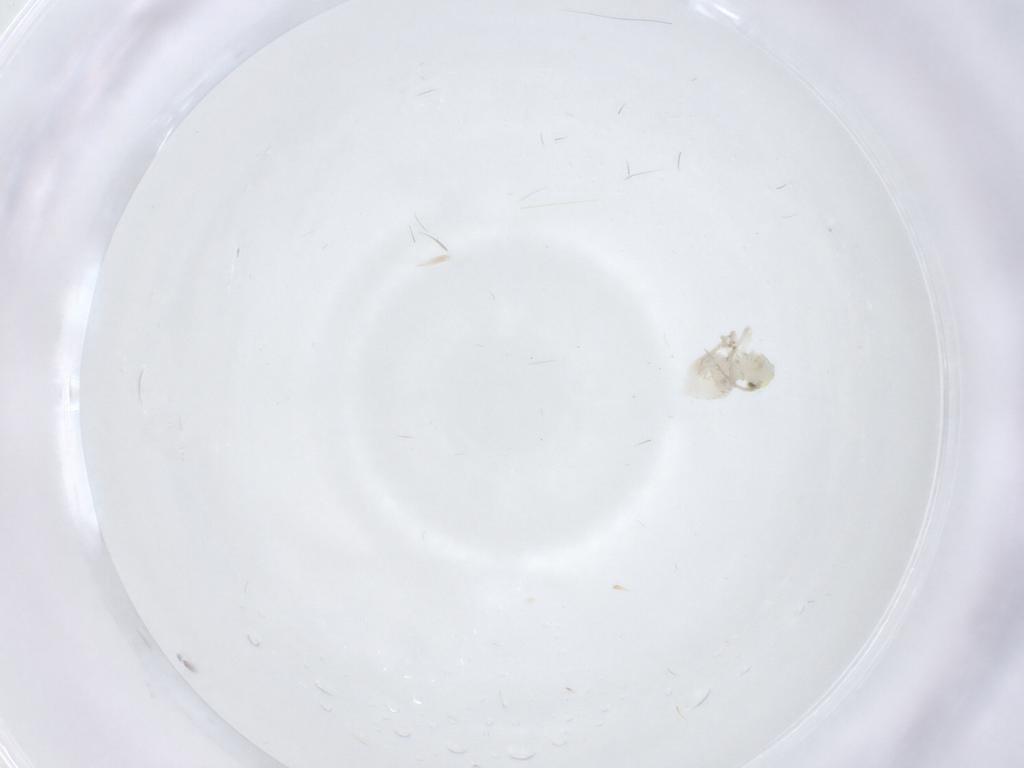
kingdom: Animalia
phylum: Arthropoda
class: Insecta
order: Psocodea
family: Caeciliusidae
